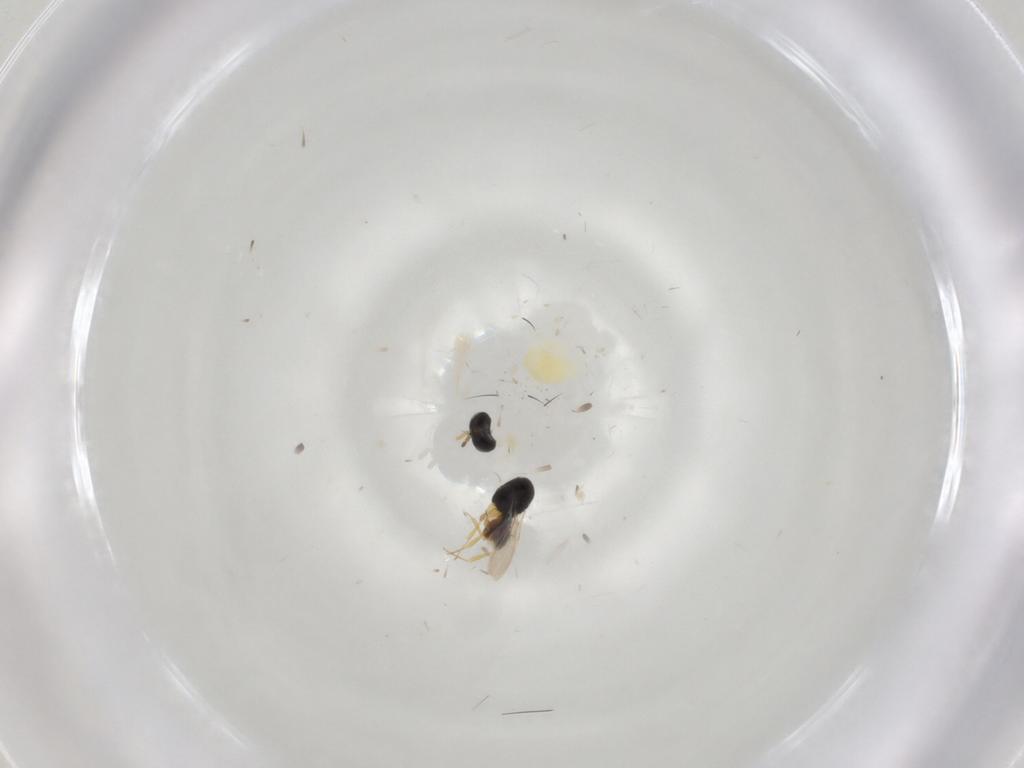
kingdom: Animalia
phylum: Arthropoda
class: Insecta
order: Hymenoptera
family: Scelionidae
